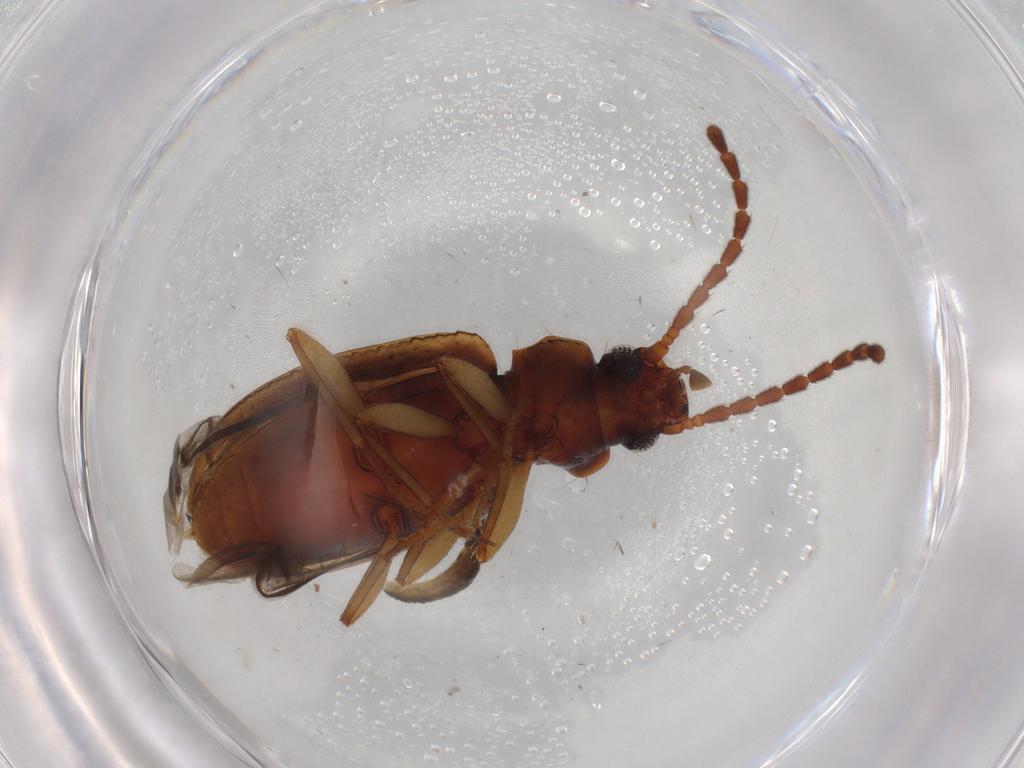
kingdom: Animalia
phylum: Arthropoda
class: Insecta
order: Coleoptera
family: Tenebrionidae
